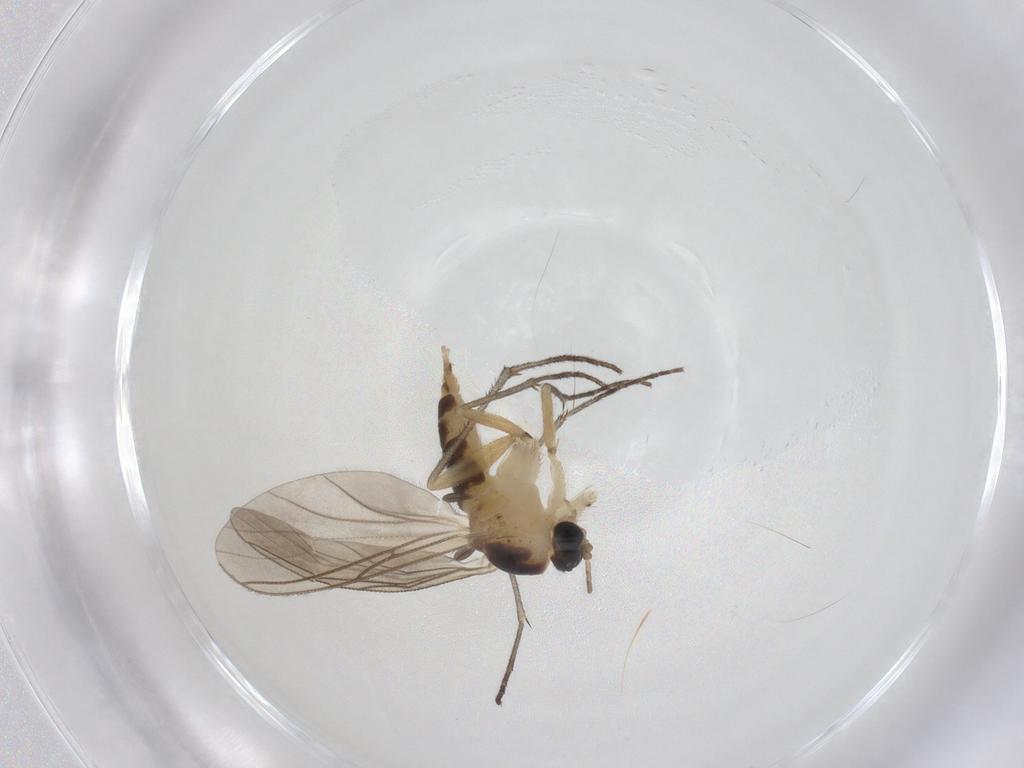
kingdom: Animalia
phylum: Arthropoda
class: Insecta
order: Diptera
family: Sciaridae
